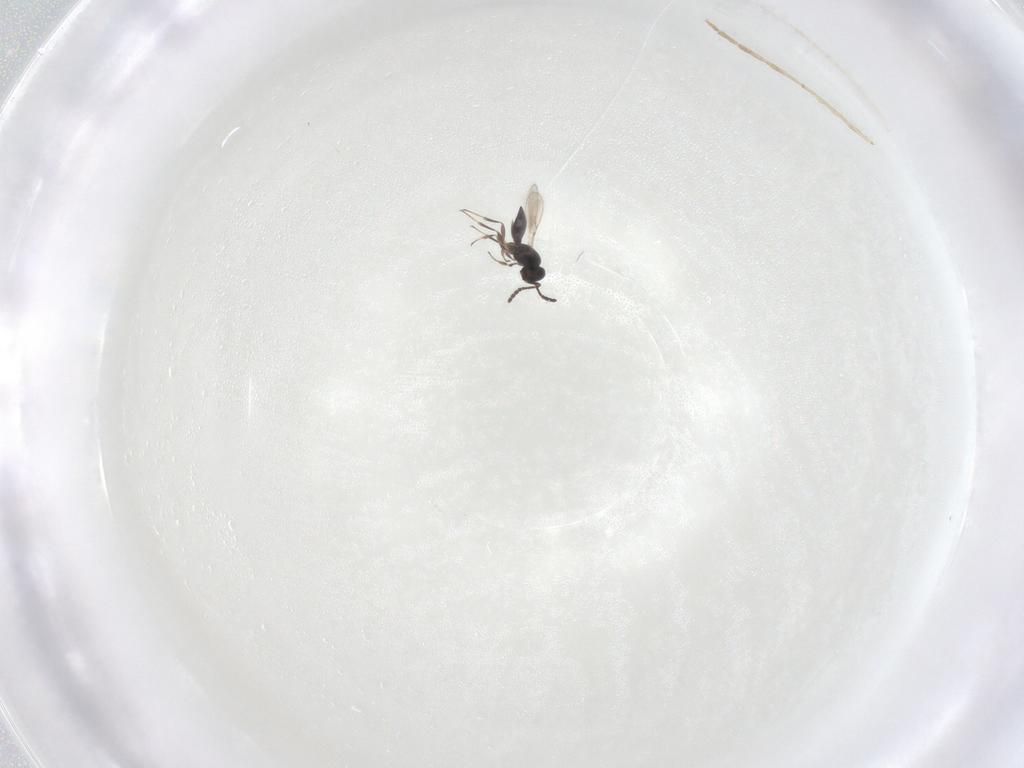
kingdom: Animalia
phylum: Arthropoda
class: Insecta
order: Hymenoptera
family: Scelionidae
